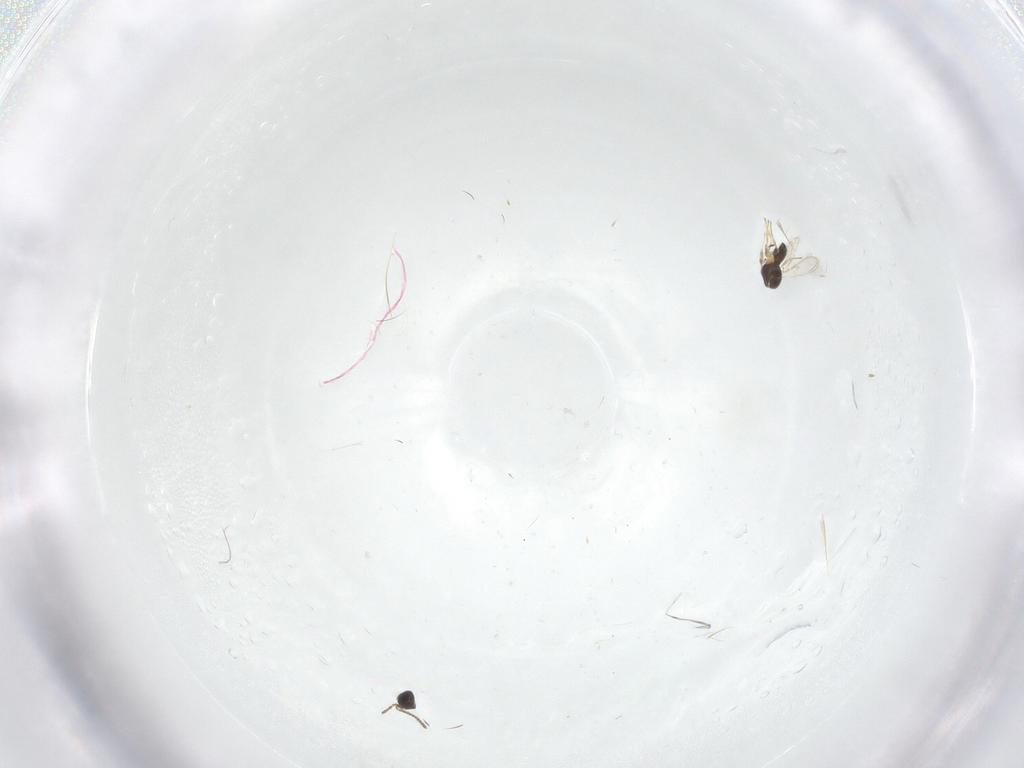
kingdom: Animalia
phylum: Arthropoda
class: Insecta
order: Hymenoptera
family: Scelionidae
